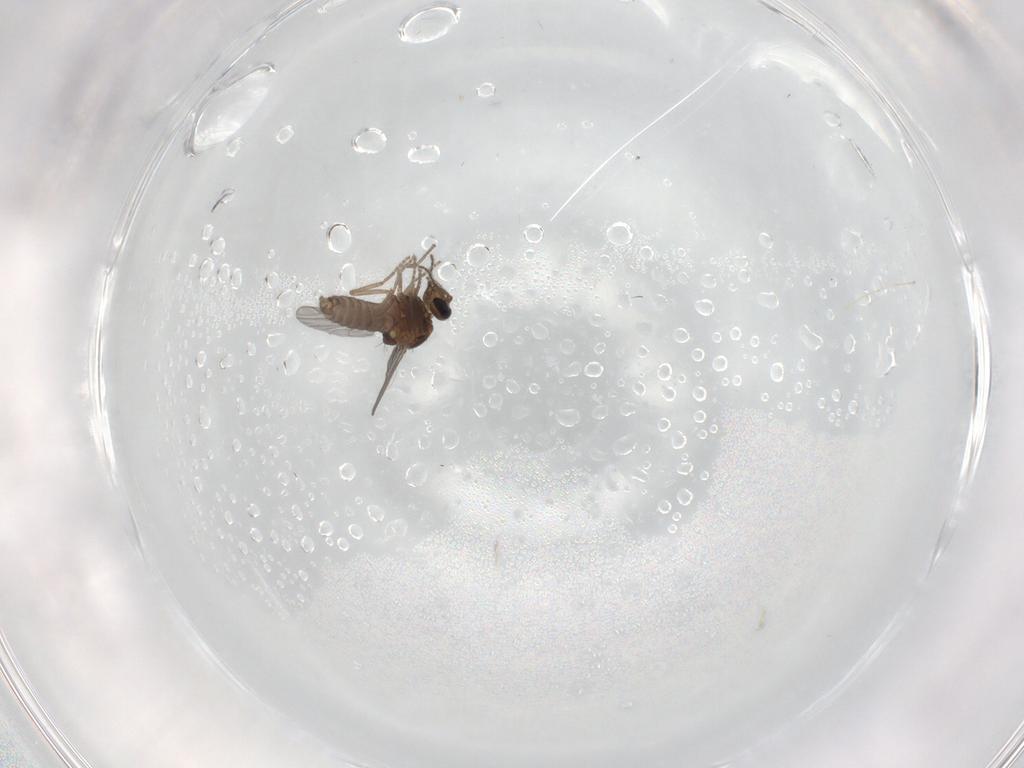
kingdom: Animalia
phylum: Arthropoda
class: Insecta
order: Diptera
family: Ceratopogonidae
